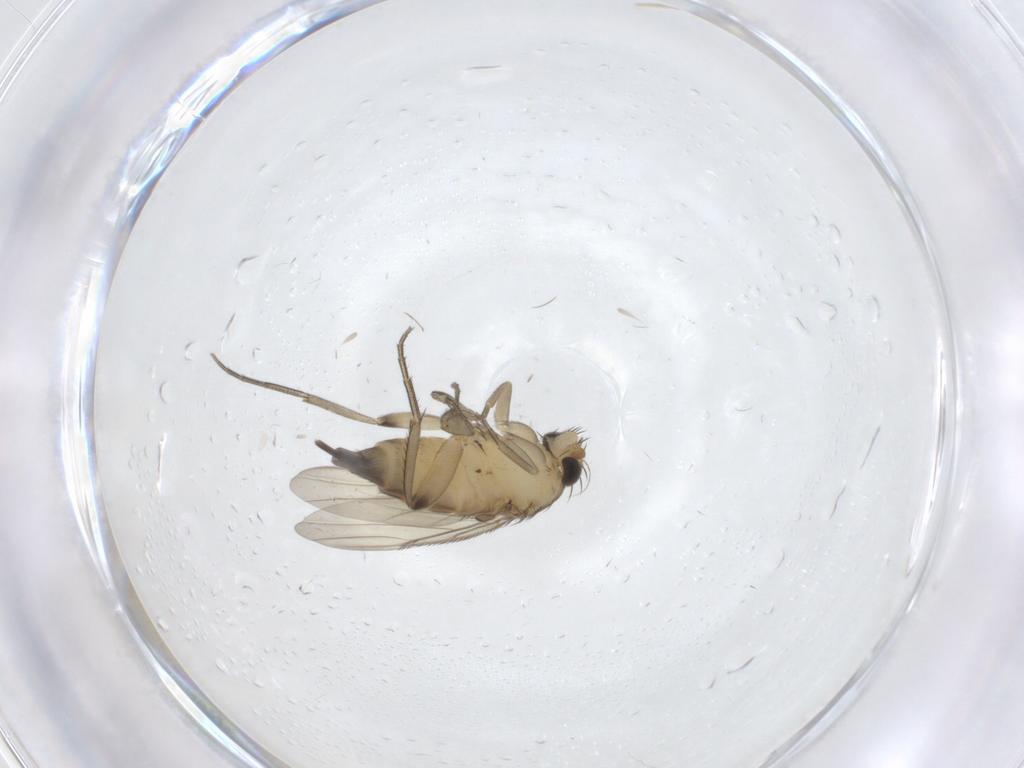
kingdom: Animalia
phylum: Arthropoda
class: Insecta
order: Diptera
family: Phoridae
